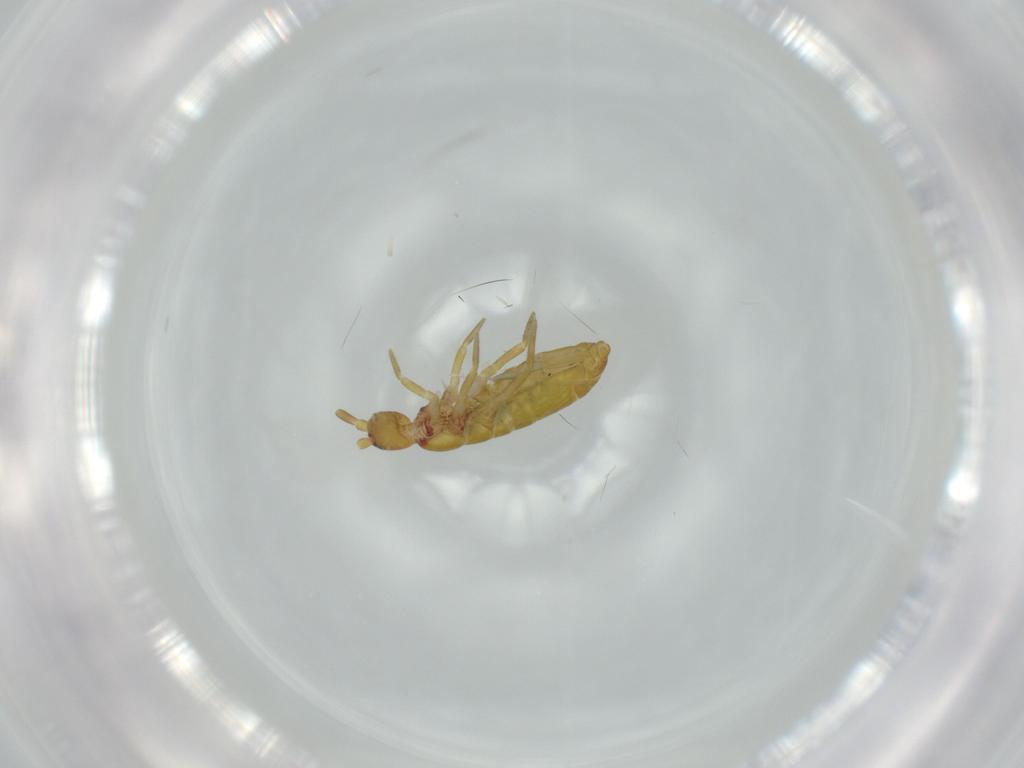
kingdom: Animalia
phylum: Arthropoda
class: Collembola
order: Entomobryomorpha
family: Tomoceridae
